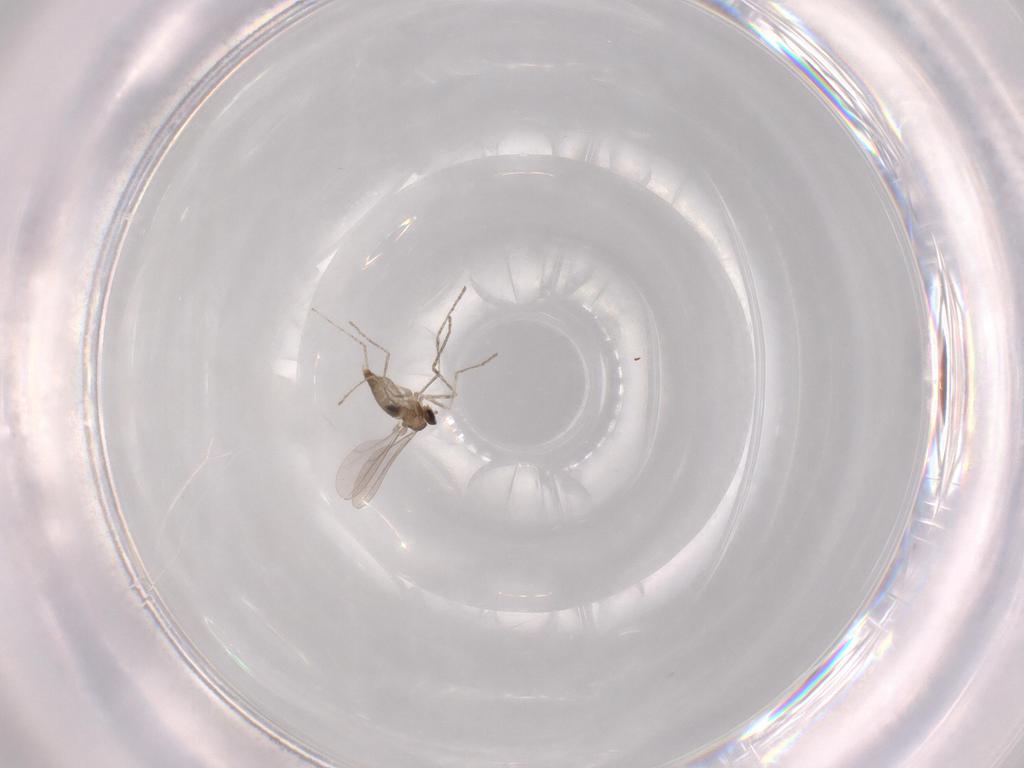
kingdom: Animalia
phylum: Arthropoda
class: Insecta
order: Diptera
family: Chironomidae
